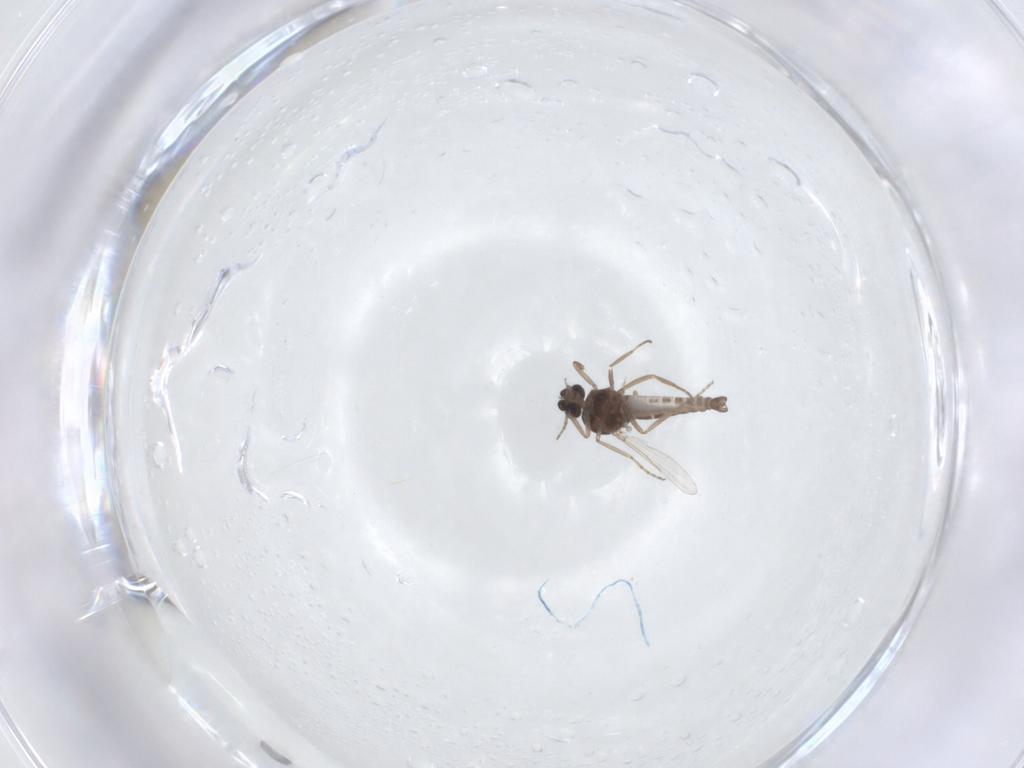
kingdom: Animalia
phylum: Arthropoda
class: Insecta
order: Diptera
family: Ceratopogonidae
